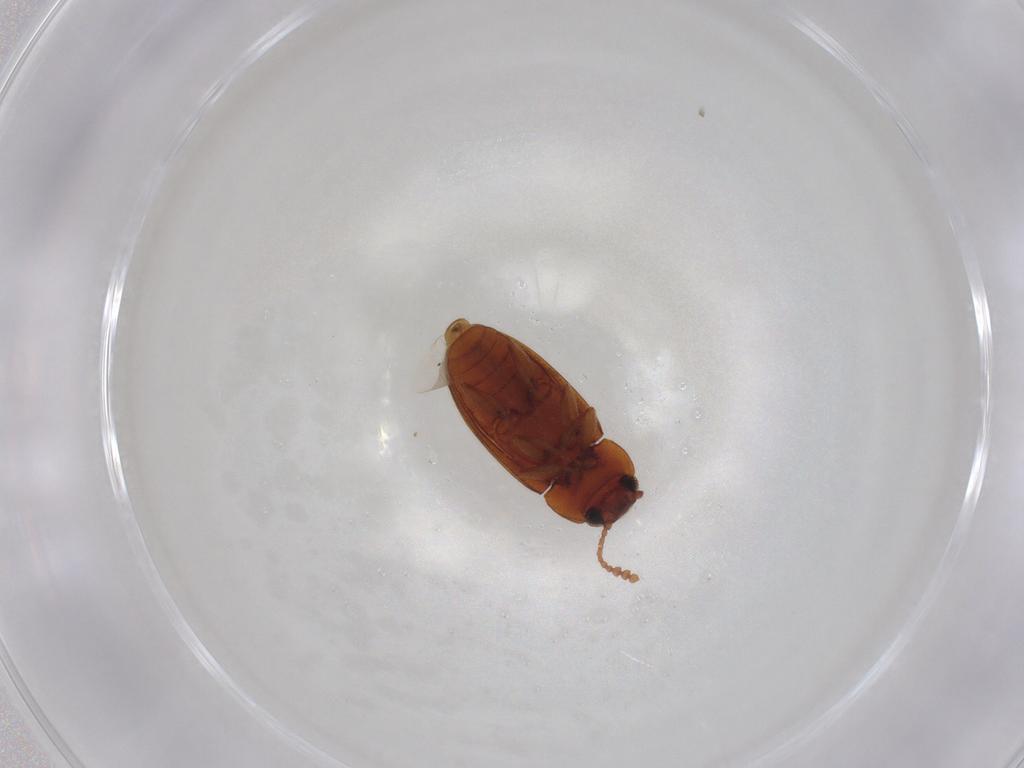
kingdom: Animalia
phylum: Arthropoda
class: Insecta
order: Coleoptera
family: Erotylidae
